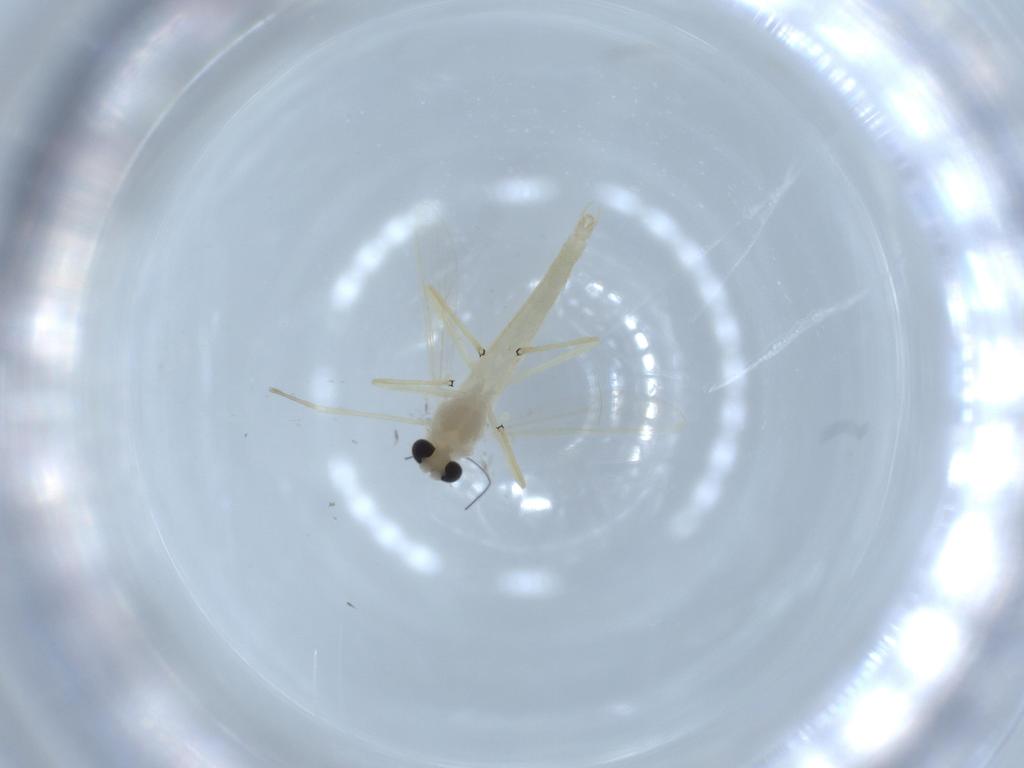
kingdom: Animalia
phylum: Arthropoda
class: Insecta
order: Diptera
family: Chironomidae
